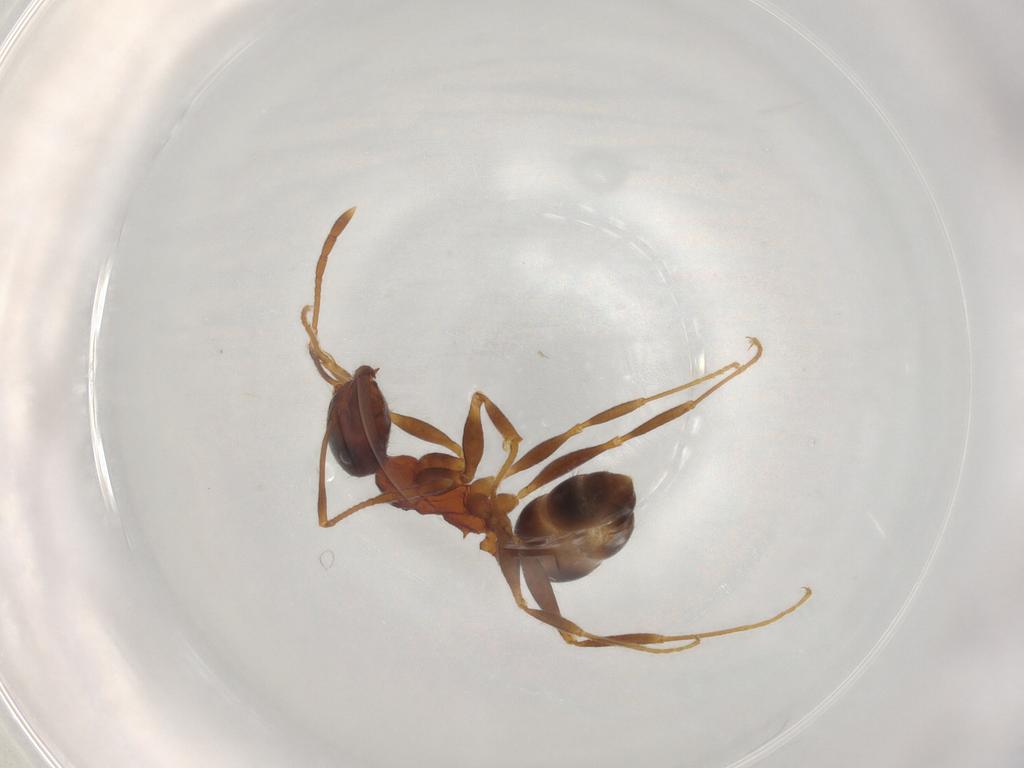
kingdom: Animalia
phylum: Arthropoda
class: Insecta
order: Hymenoptera
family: Formicidae
